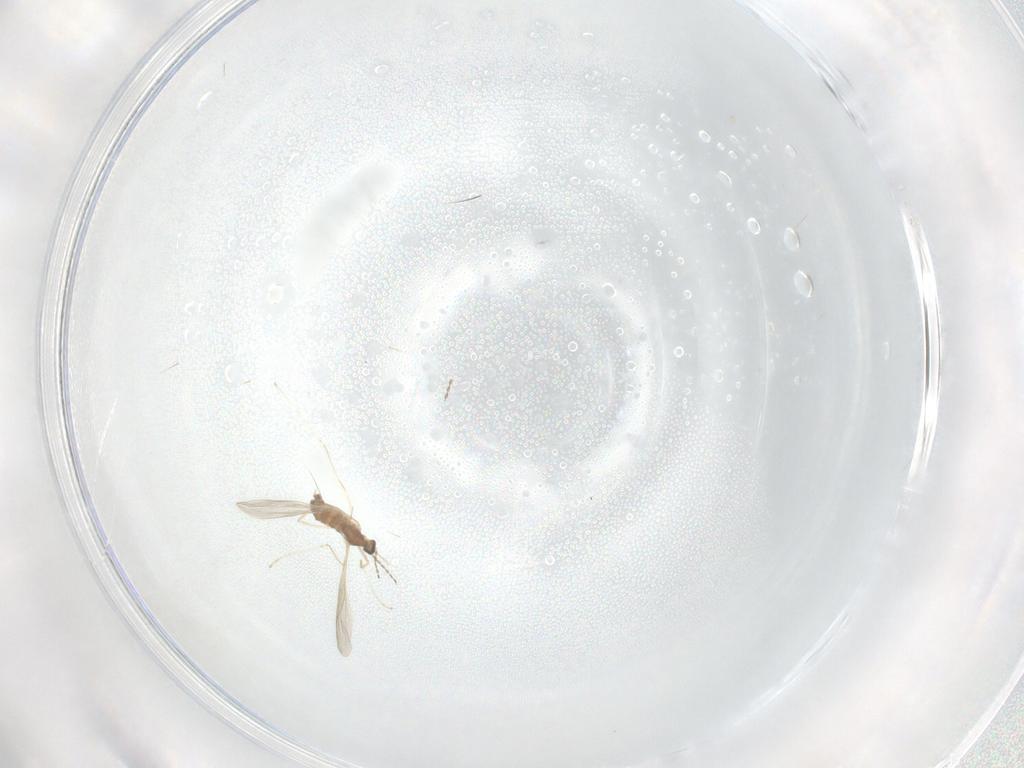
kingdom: Animalia
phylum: Arthropoda
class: Insecta
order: Diptera
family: Cecidomyiidae
